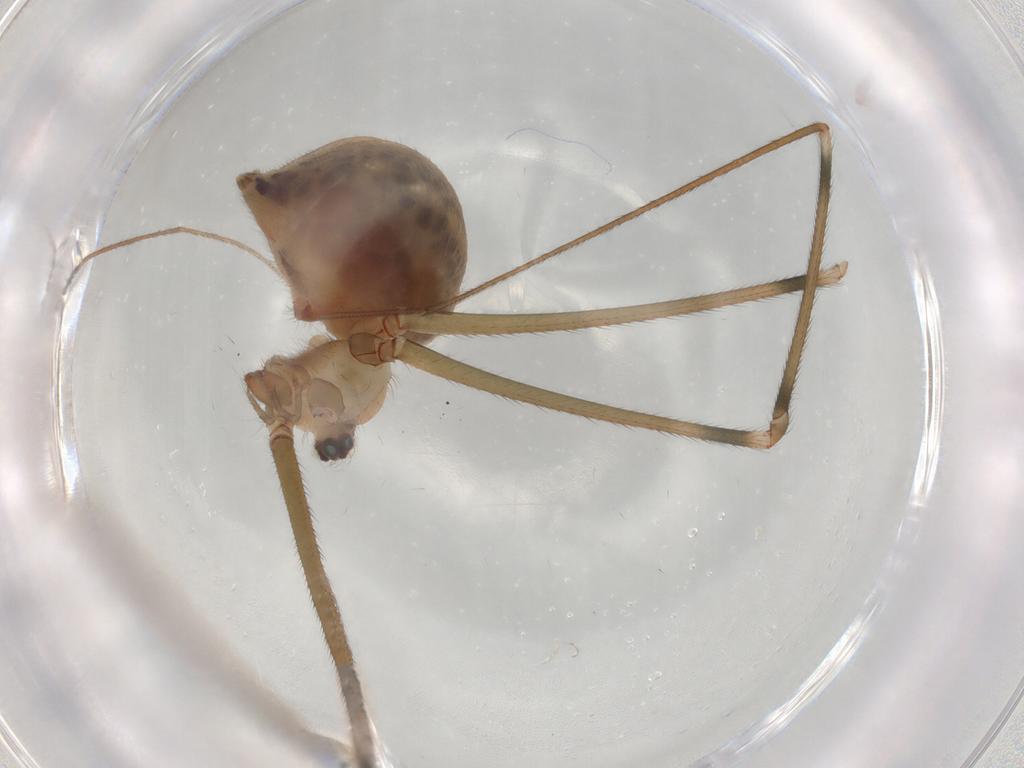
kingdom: Animalia
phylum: Arthropoda
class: Arachnida
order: Araneae
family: Pholcidae
